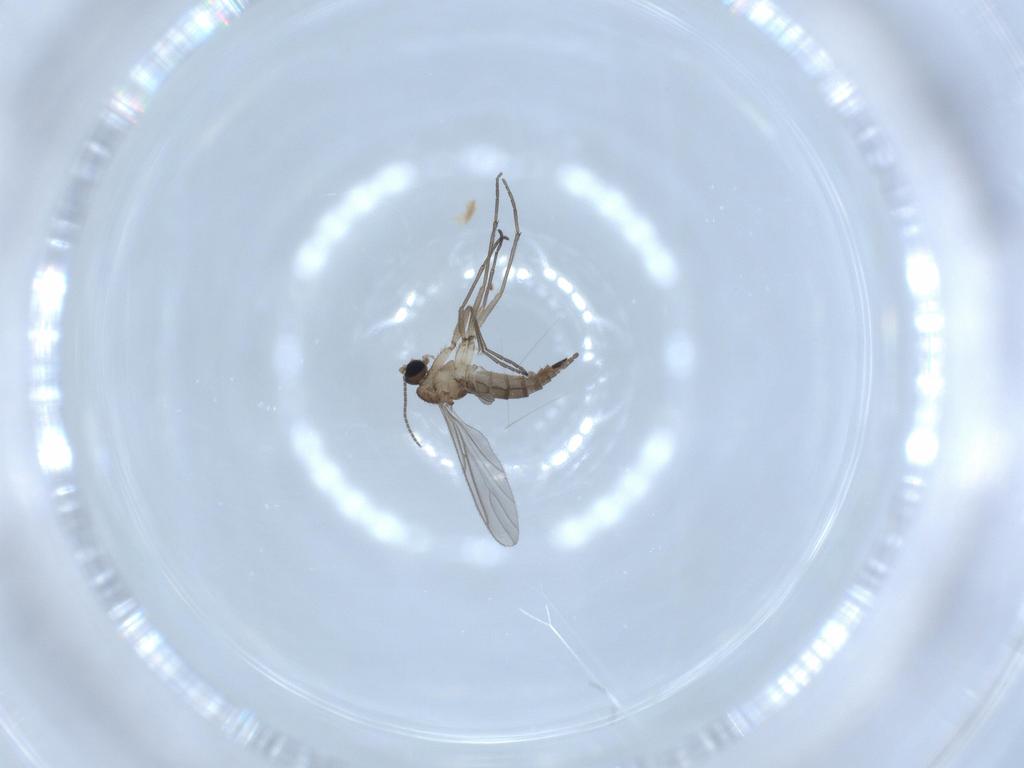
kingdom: Animalia
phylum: Arthropoda
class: Insecta
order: Diptera
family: Sciaridae
